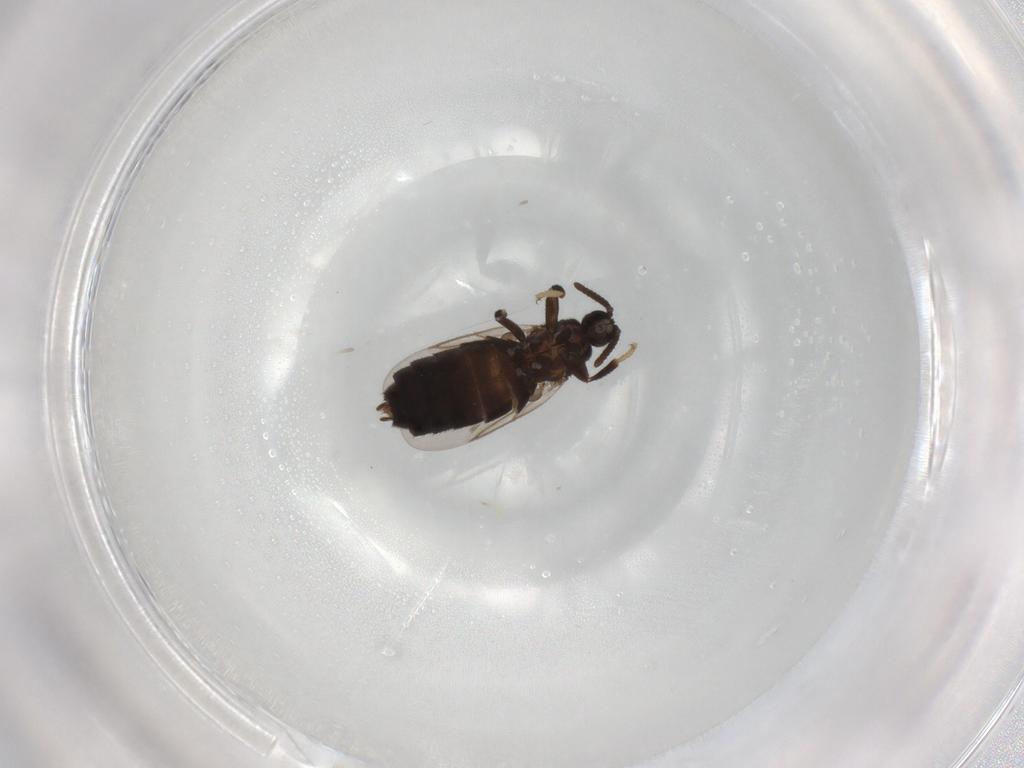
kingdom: Animalia
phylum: Arthropoda
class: Insecta
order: Diptera
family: Scatopsidae
